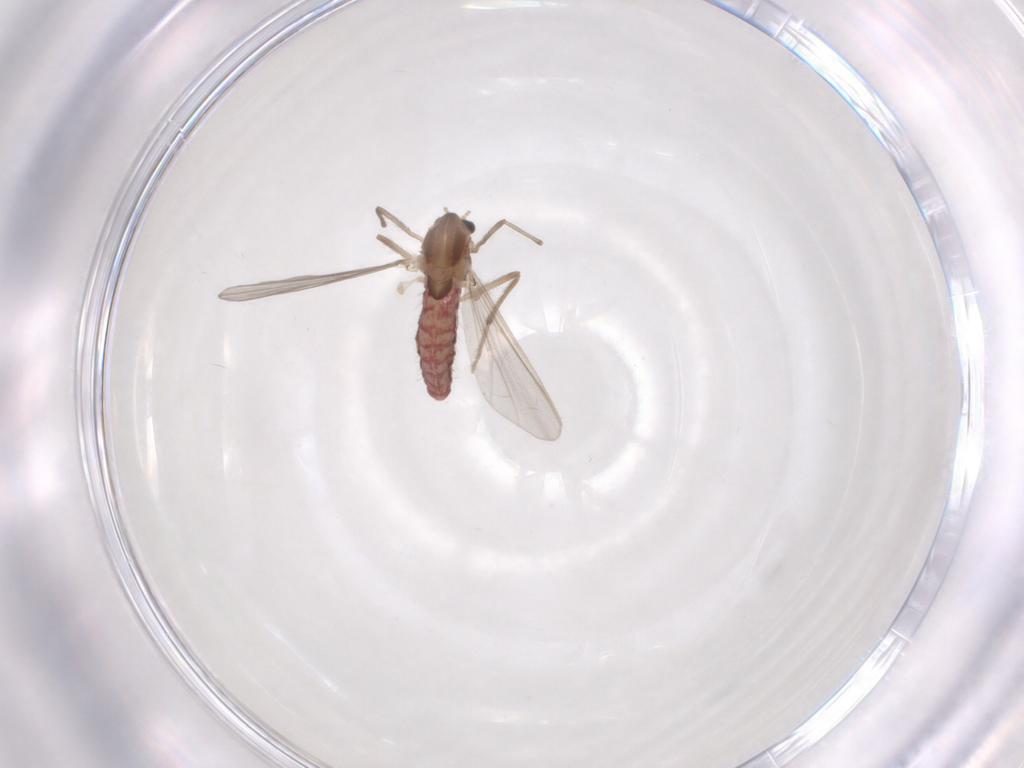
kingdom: Animalia
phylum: Arthropoda
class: Insecta
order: Diptera
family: Chironomidae
